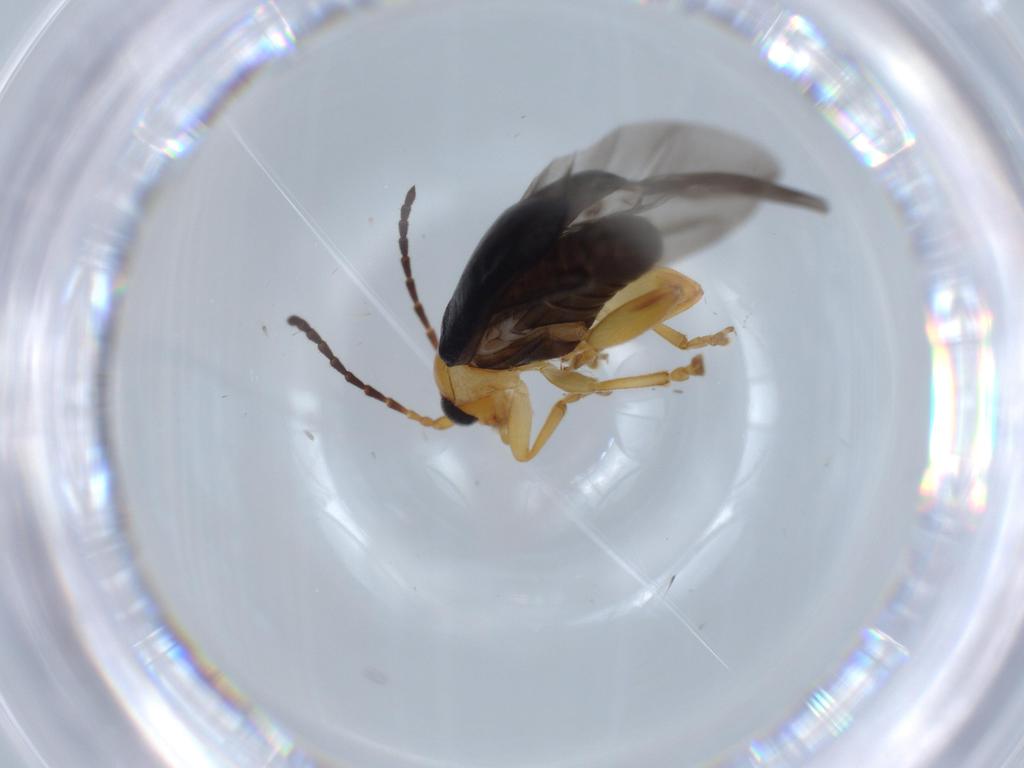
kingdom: Animalia
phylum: Arthropoda
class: Insecta
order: Coleoptera
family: Chrysomelidae
